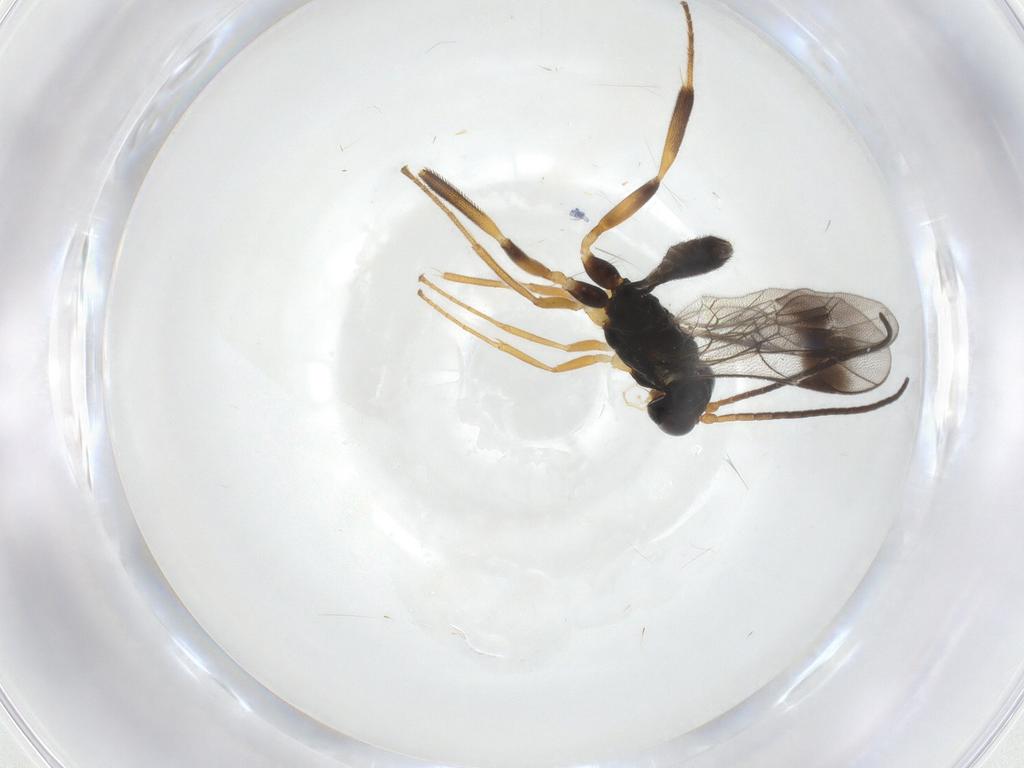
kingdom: Animalia
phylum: Arthropoda
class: Insecta
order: Hymenoptera
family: Ichneumonidae
